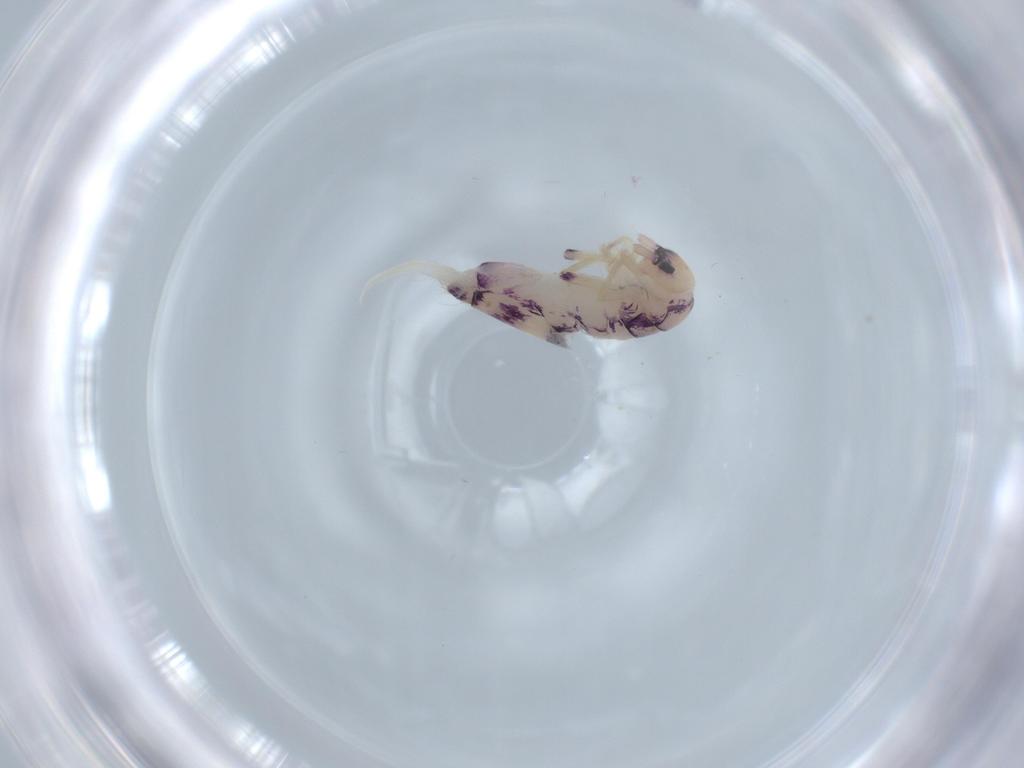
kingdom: Animalia
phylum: Arthropoda
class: Collembola
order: Entomobryomorpha
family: Entomobryidae
